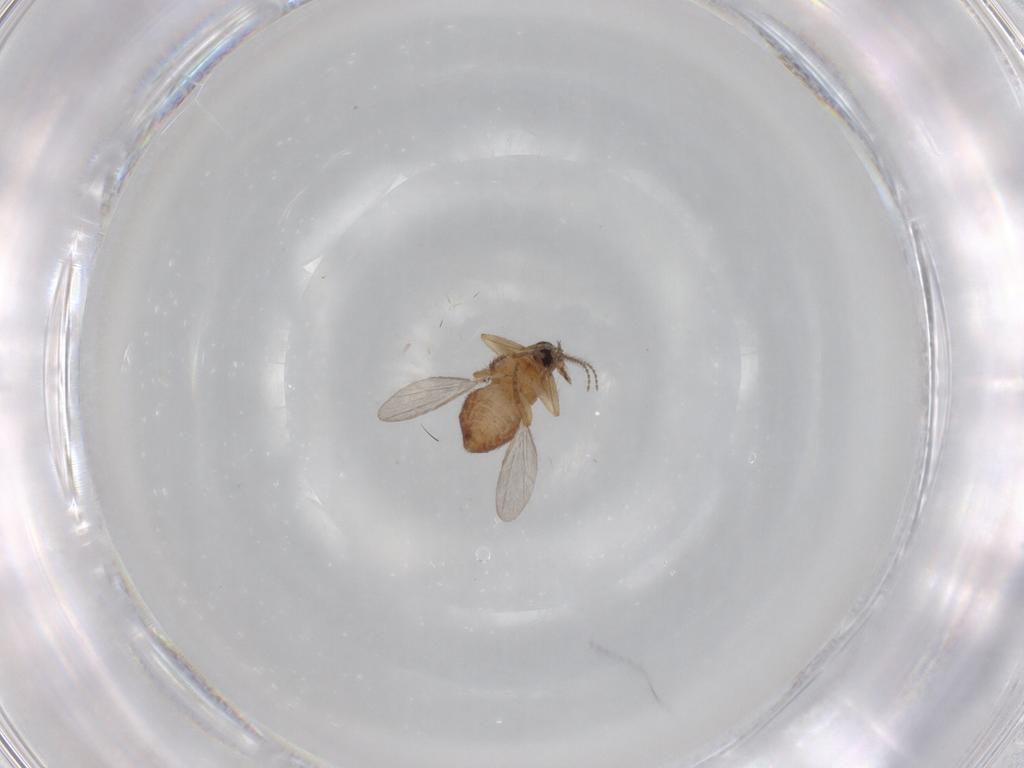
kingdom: Animalia
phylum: Arthropoda
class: Insecta
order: Diptera
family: Ceratopogonidae
